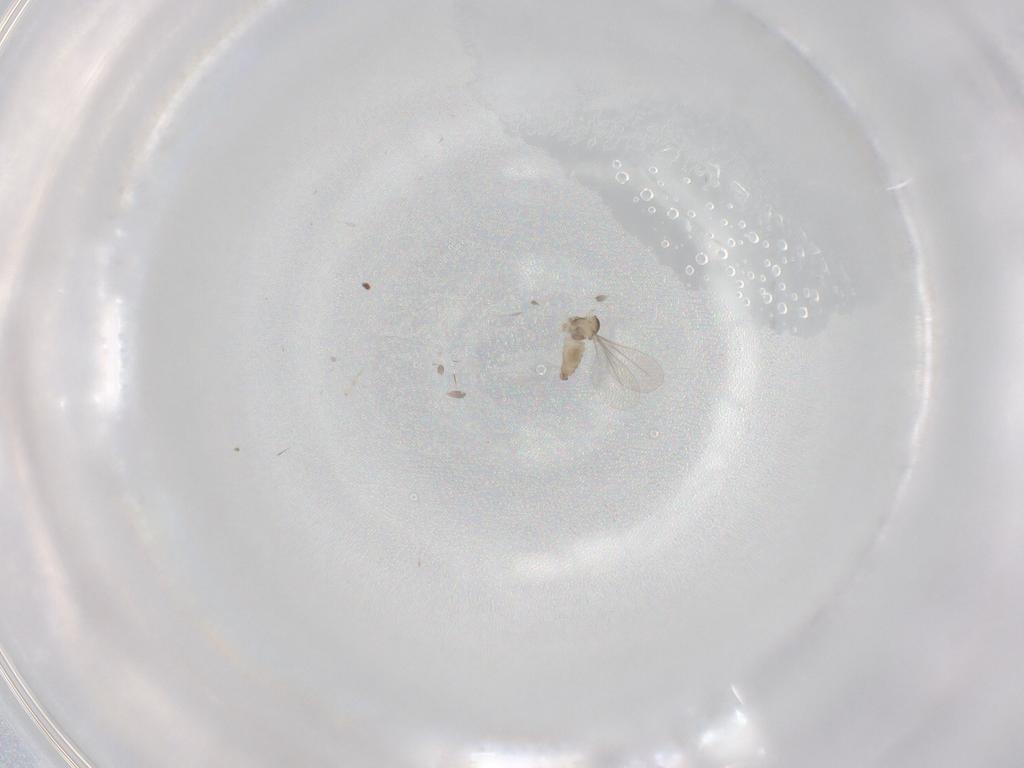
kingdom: Animalia
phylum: Arthropoda
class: Insecta
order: Diptera
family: Cecidomyiidae
